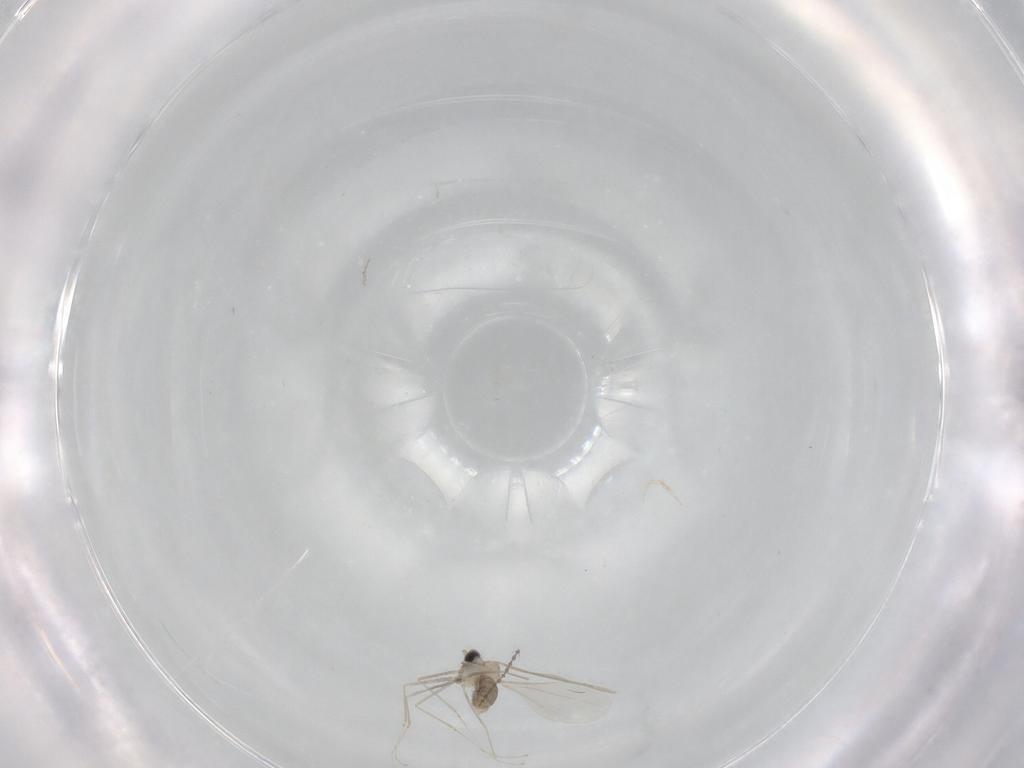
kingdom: Animalia
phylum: Arthropoda
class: Insecta
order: Diptera
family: Cecidomyiidae
